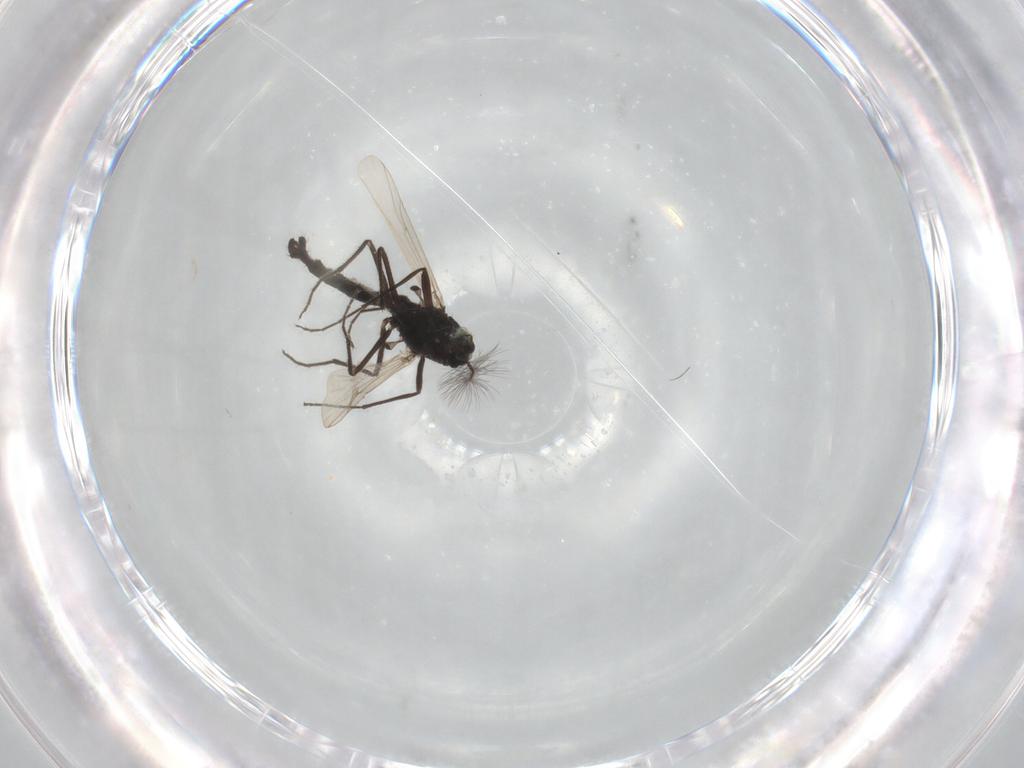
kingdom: Animalia
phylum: Arthropoda
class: Insecta
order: Diptera
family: Chironomidae
